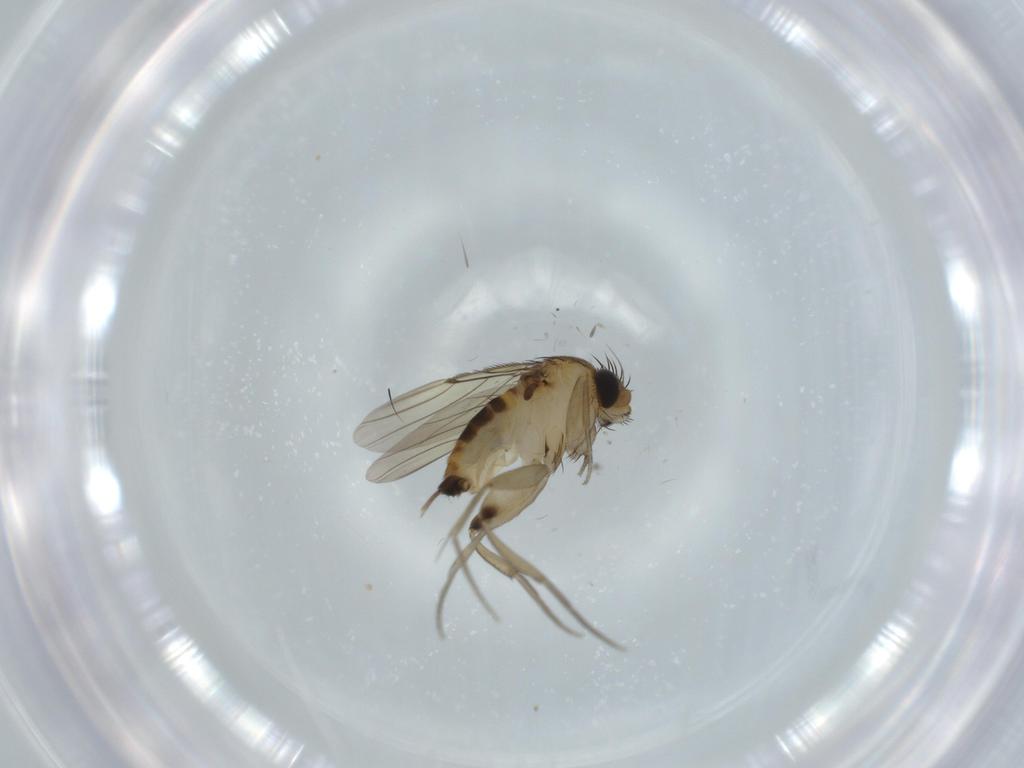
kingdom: Animalia
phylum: Arthropoda
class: Insecta
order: Diptera
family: Phoridae
